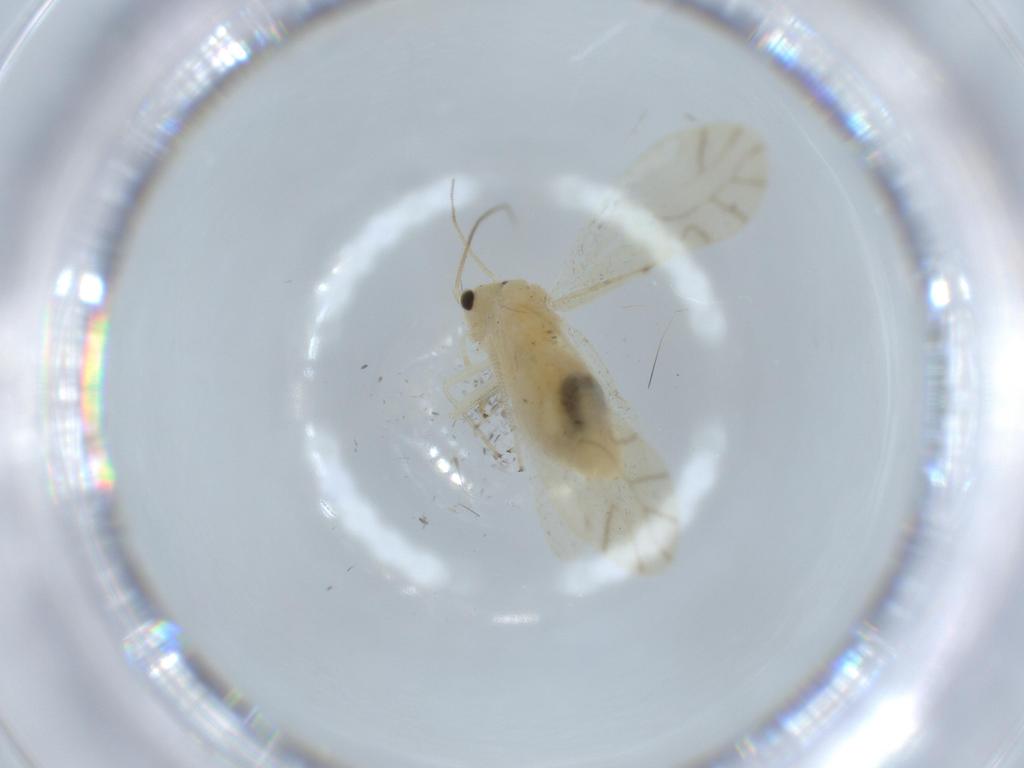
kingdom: Animalia
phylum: Arthropoda
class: Insecta
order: Psocodea
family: Caeciliusidae
